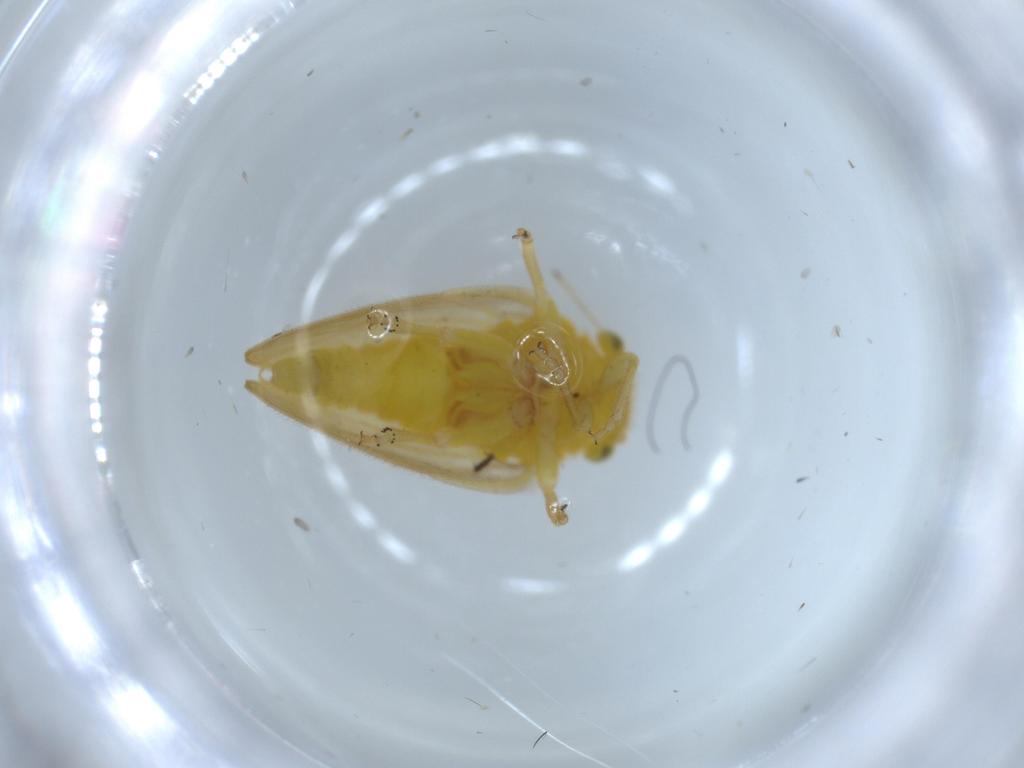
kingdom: Animalia
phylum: Arthropoda
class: Insecta
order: Hemiptera
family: Cicadellidae
